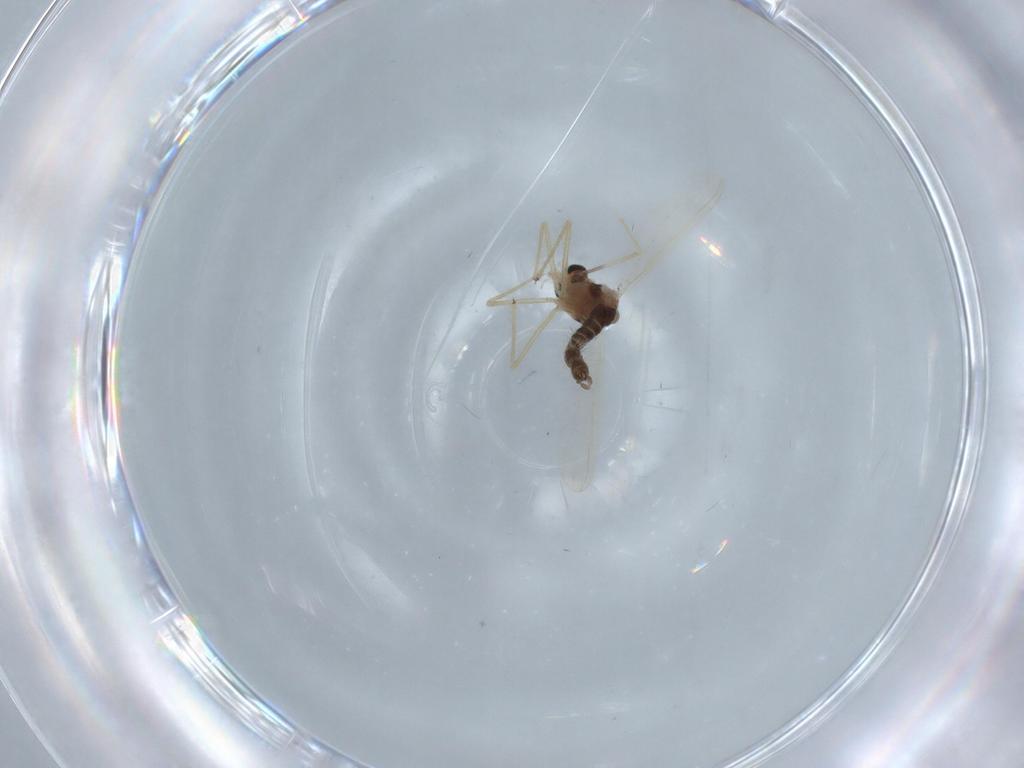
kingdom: Animalia
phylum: Arthropoda
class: Insecta
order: Diptera
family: Chironomidae
